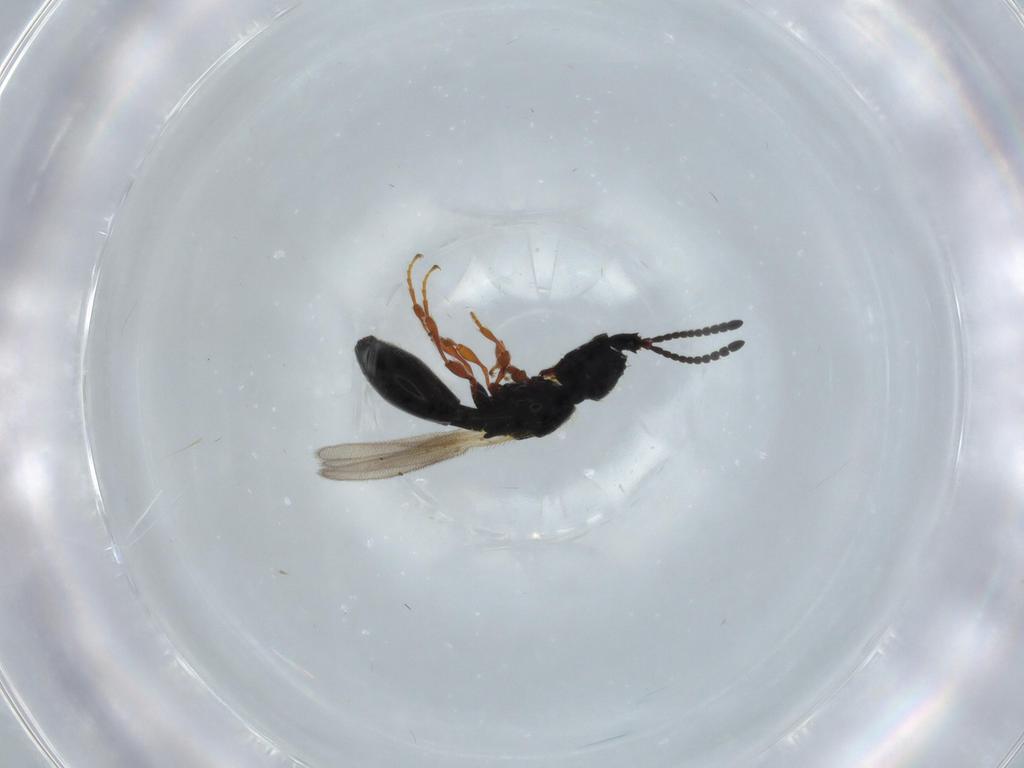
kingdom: Animalia
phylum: Arthropoda
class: Insecta
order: Hymenoptera
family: Diapriidae
